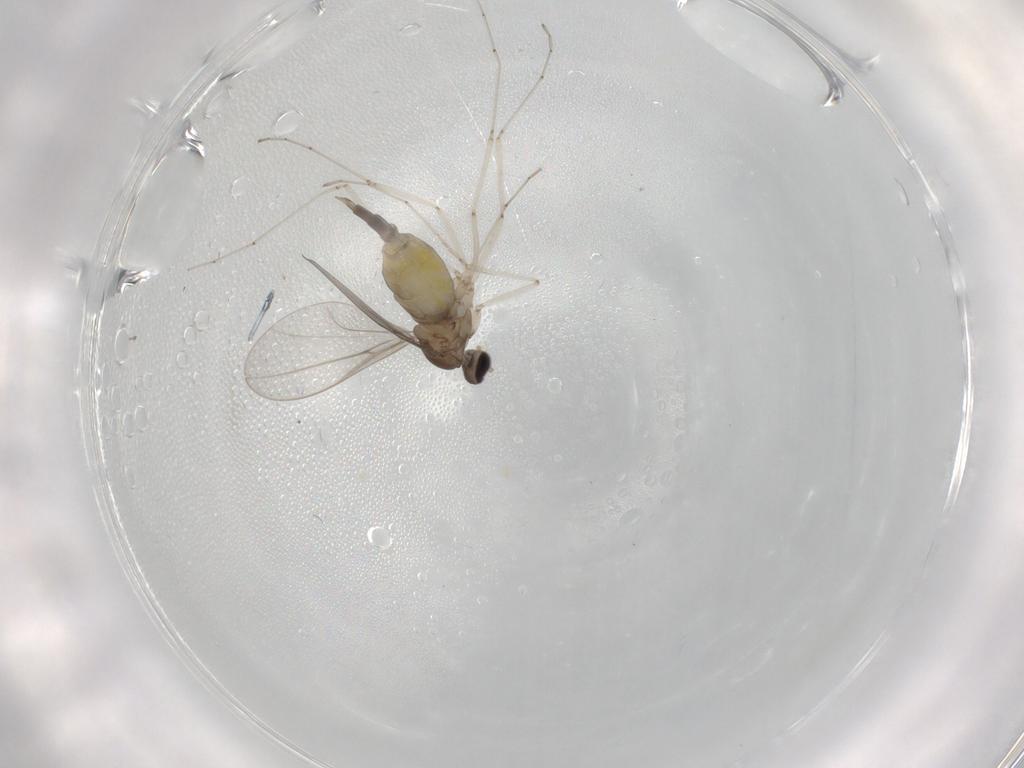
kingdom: Animalia
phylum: Arthropoda
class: Insecta
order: Diptera
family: Cecidomyiidae
